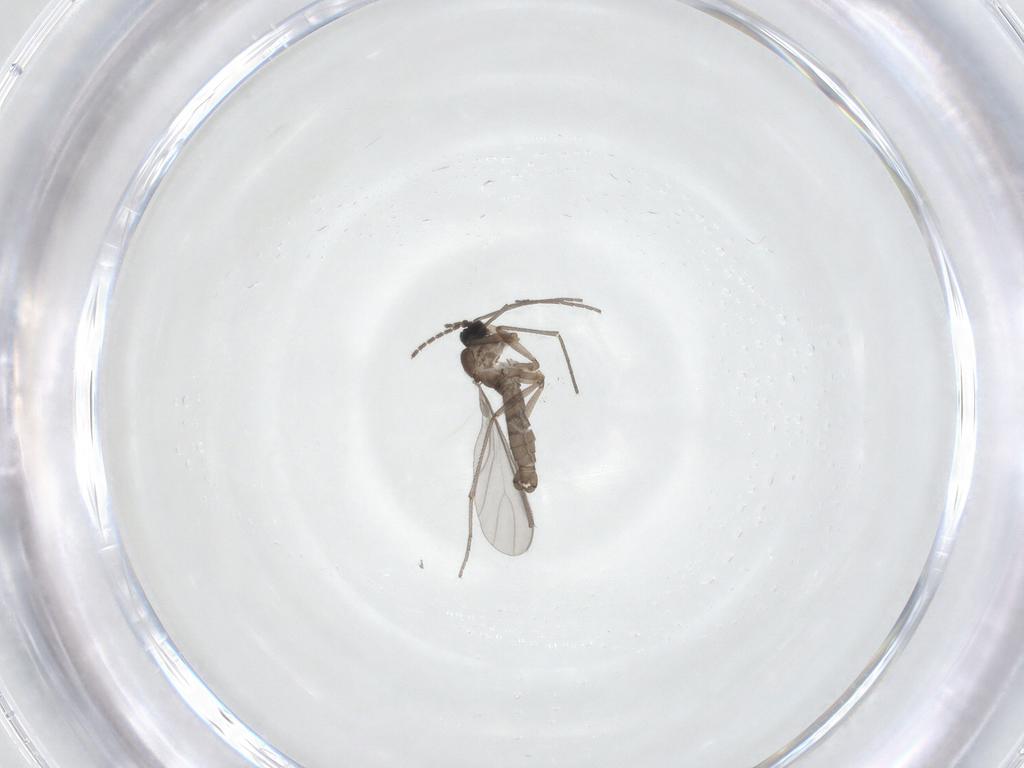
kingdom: Animalia
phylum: Arthropoda
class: Insecta
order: Diptera
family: Sciaridae
